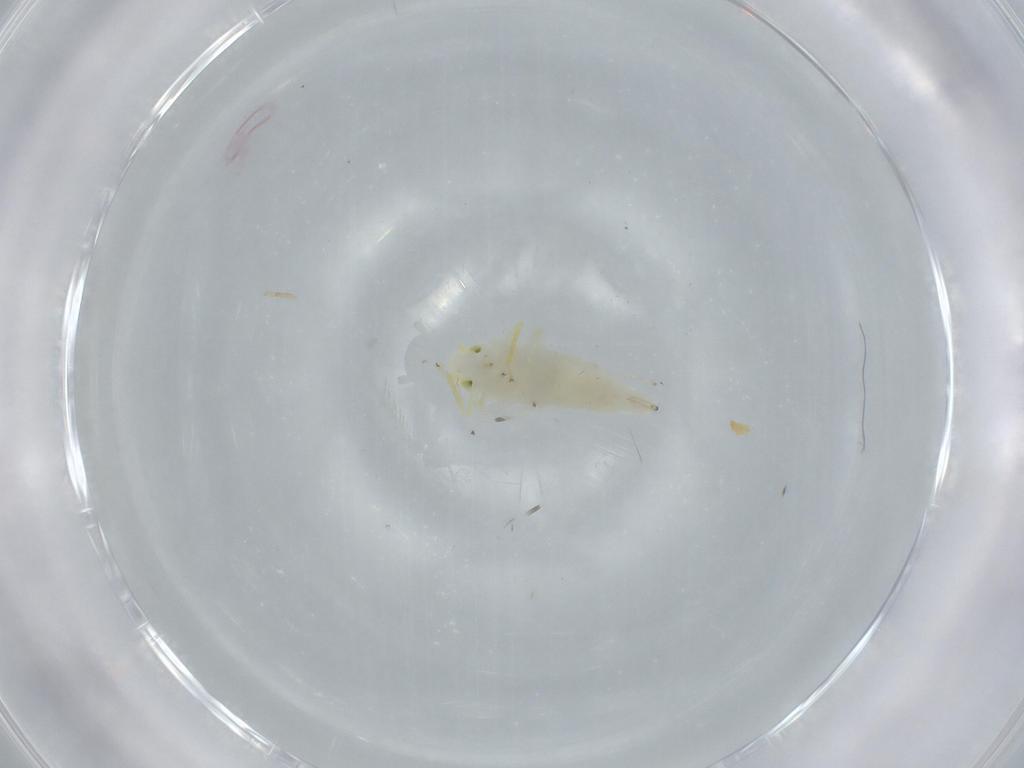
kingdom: Animalia
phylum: Arthropoda
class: Insecta
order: Hemiptera
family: Cicadellidae
